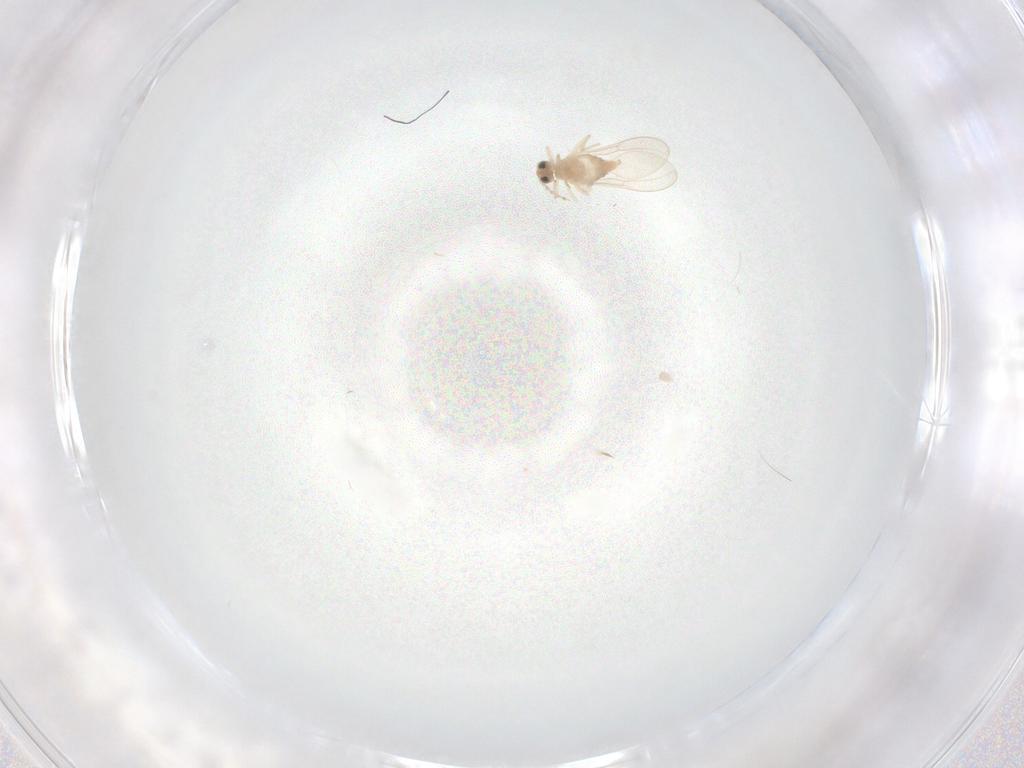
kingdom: Animalia
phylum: Arthropoda
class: Insecta
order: Diptera
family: Cecidomyiidae
